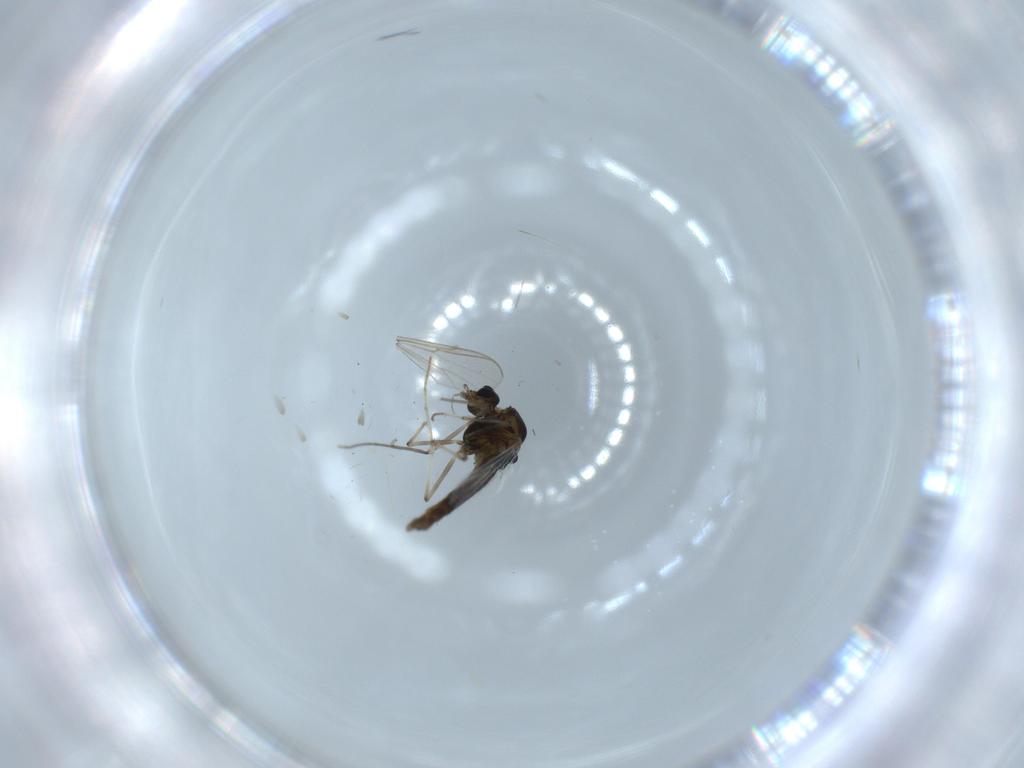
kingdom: Animalia
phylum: Arthropoda
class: Insecta
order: Diptera
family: Chironomidae
